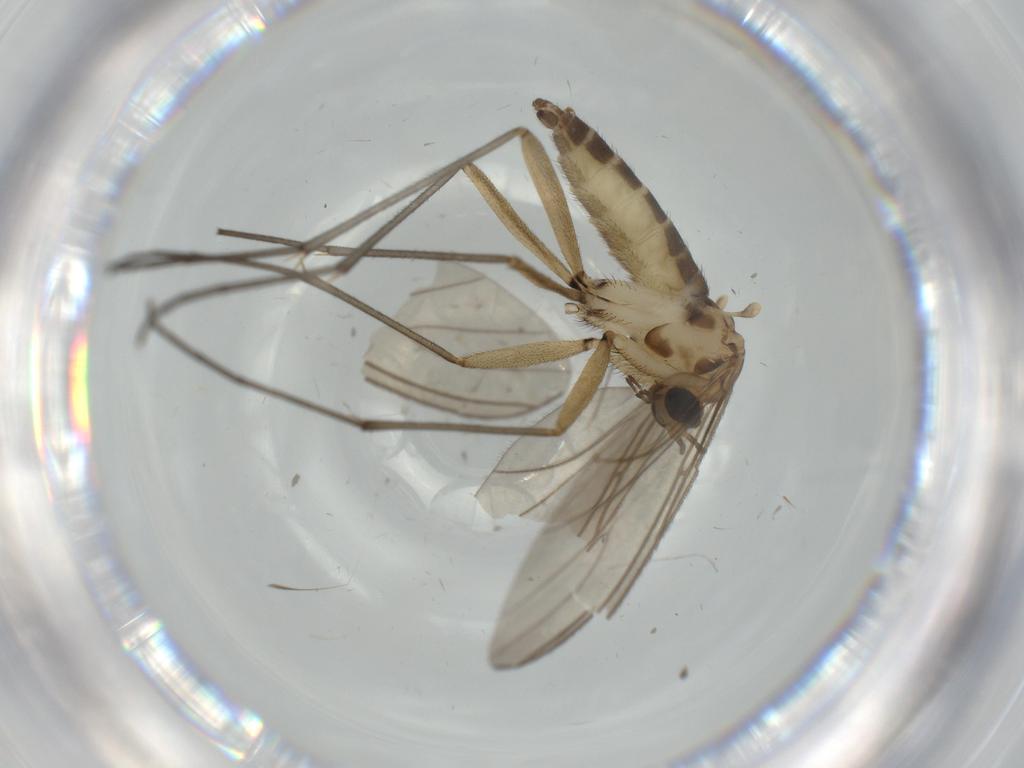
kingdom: Animalia
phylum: Arthropoda
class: Insecta
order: Diptera
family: Sciaridae
